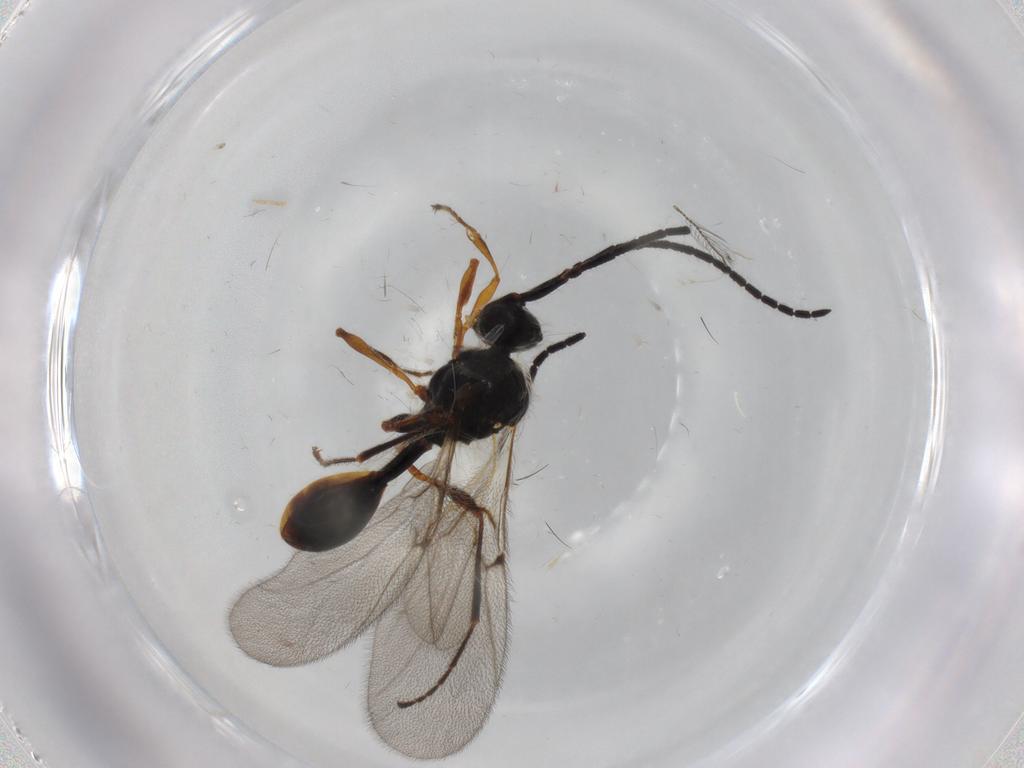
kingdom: Animalia
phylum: Arthropoda
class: Insecta
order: Hymenoptera
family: Diapriidae
